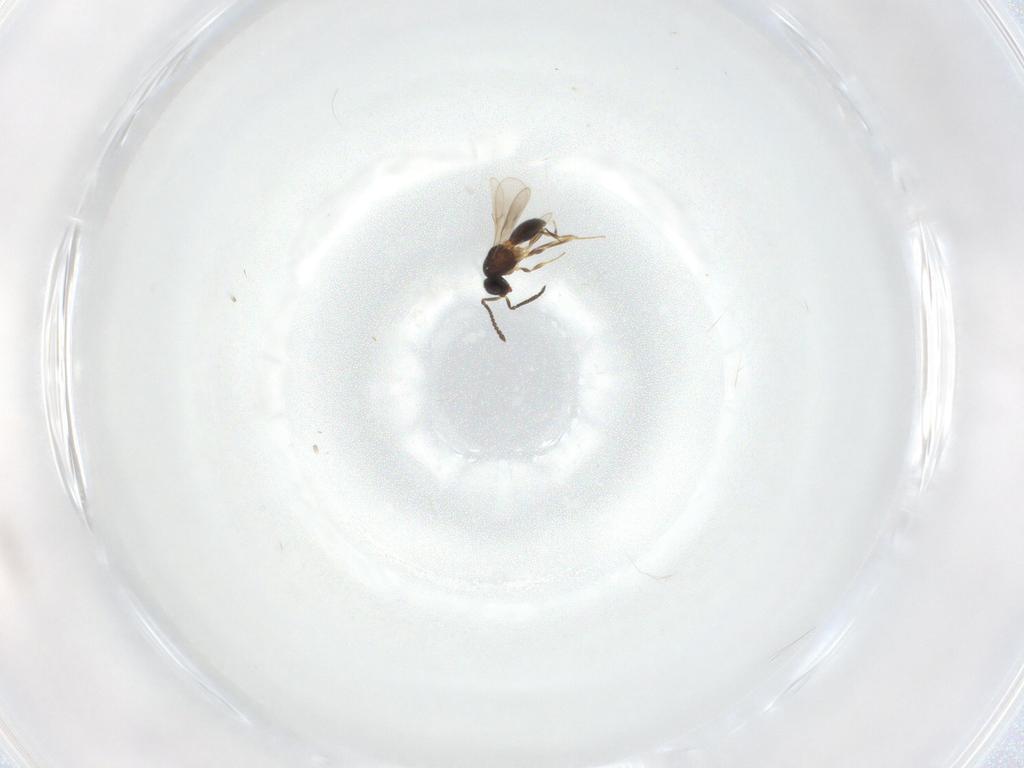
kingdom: Animalia
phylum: Arthropoda
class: Insecta
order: Hymenoptera
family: Scelionidae
